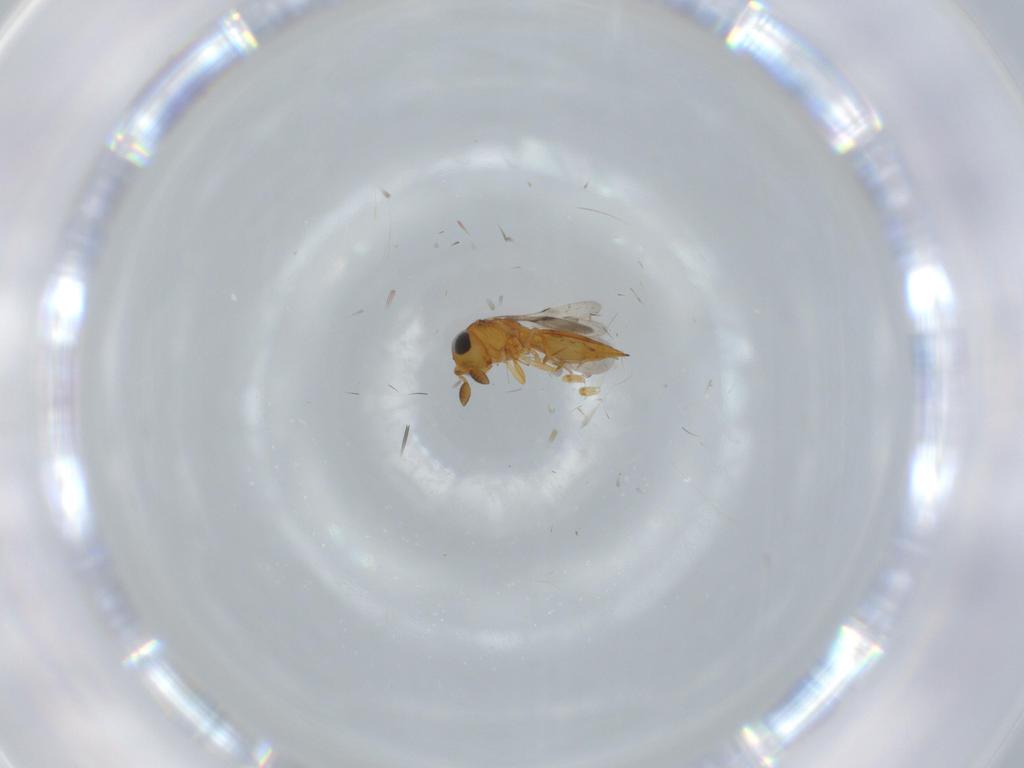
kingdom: Animalia
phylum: Arthropoda
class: Insecta
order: Hymenoptera
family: Scelionidae
